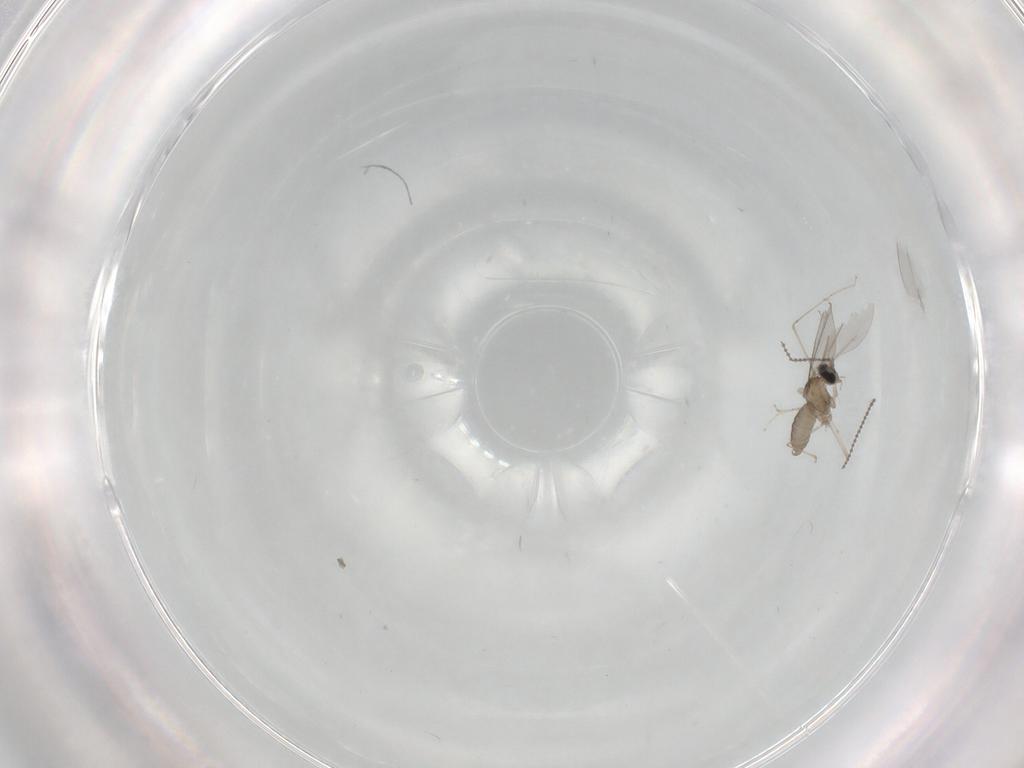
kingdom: Animalia
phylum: Arthropoda
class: Insecta
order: Diptera
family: Cecidomyiidae
